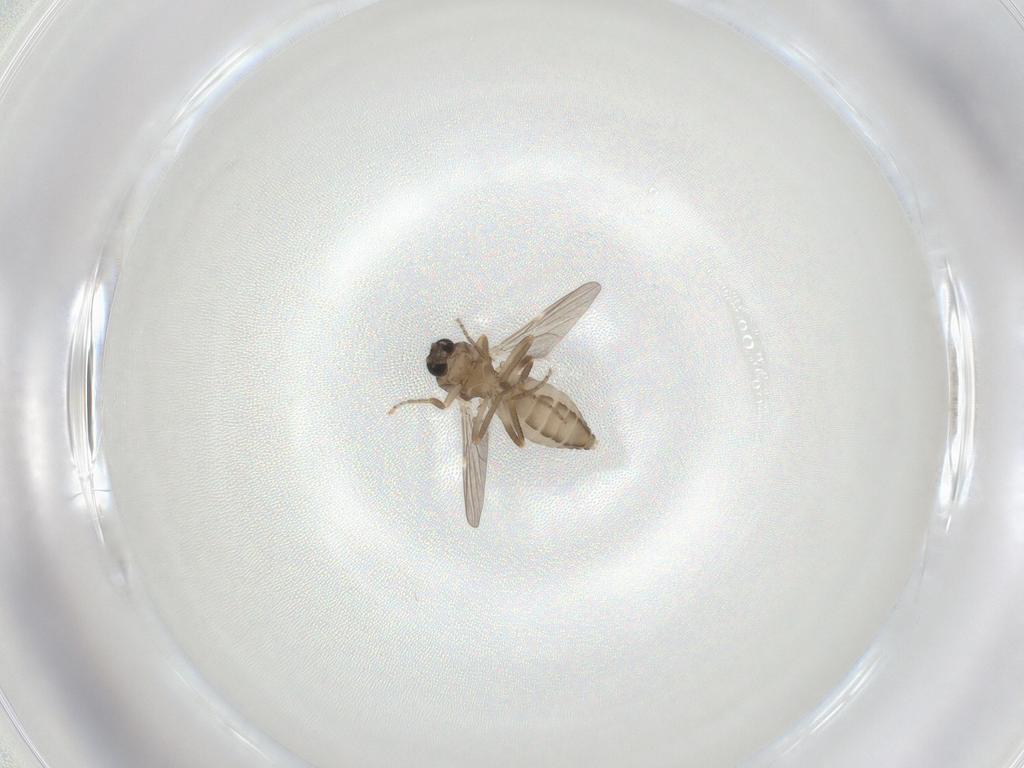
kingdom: Animalia
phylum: Arthropoda
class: Insecta
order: Diptera
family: Ceratopogonidae
